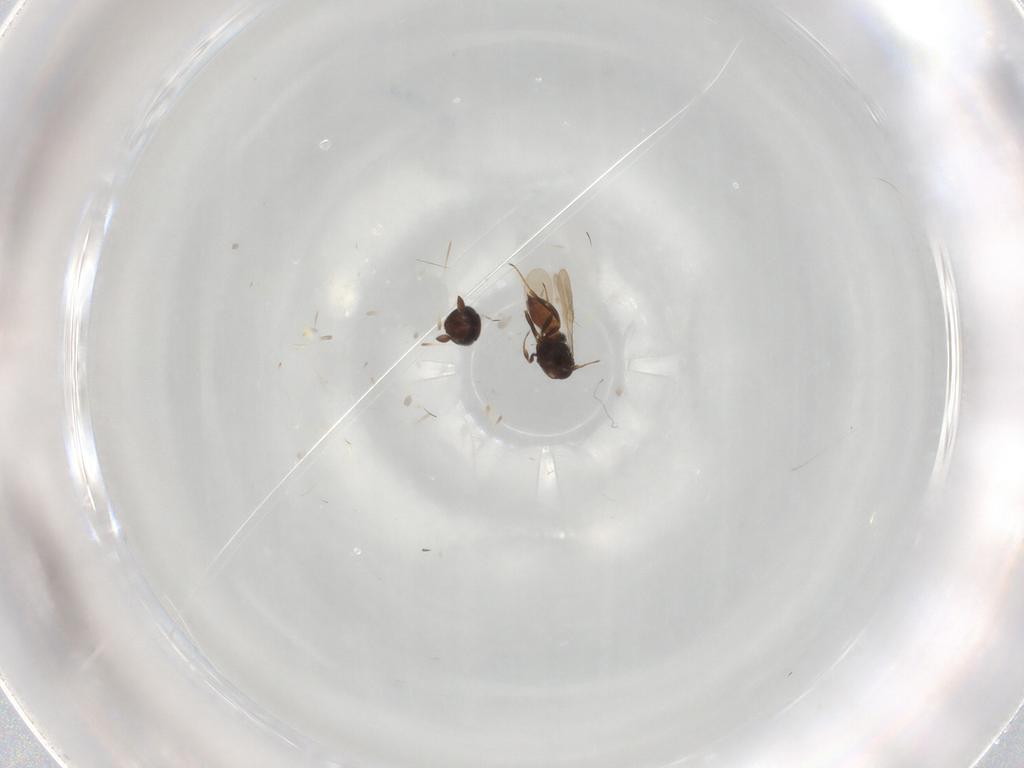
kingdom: Animalia
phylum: Arthropoda
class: Insecta
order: Hymenoptera
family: Scelionidae
